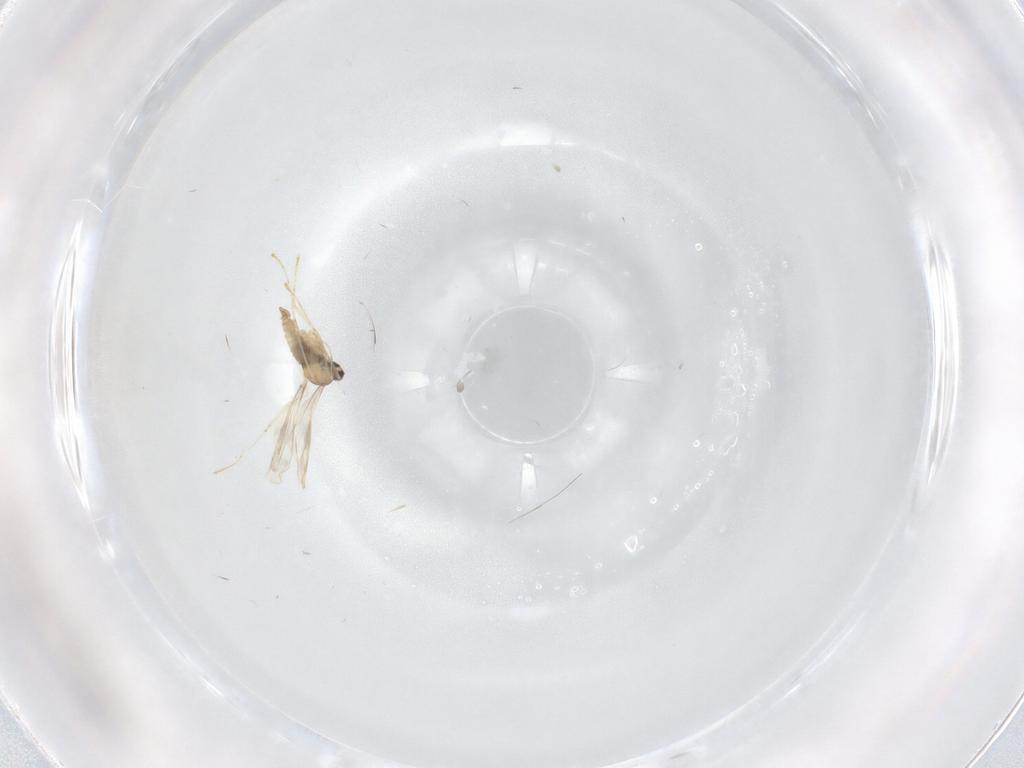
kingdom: Animalia
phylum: Arthropoda
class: Insecta
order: Diptera
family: Cecidomyiidae
